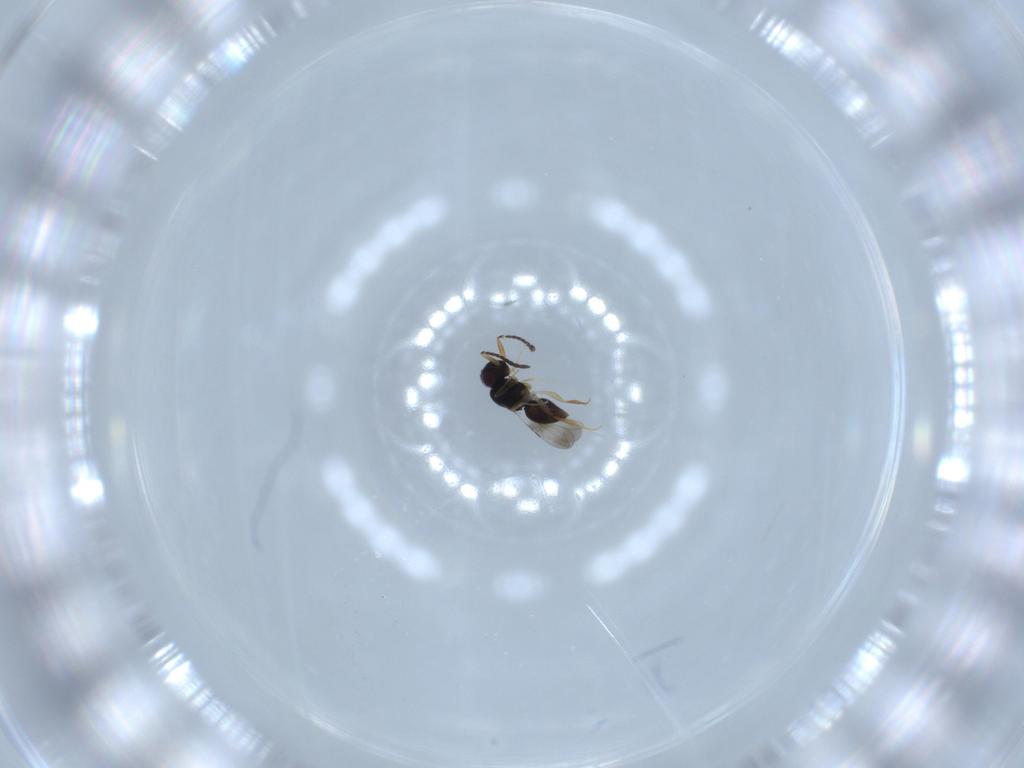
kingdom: Animalia
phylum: Arthropoda
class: Insecta
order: Hymenoptera
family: Ceraphronidae
